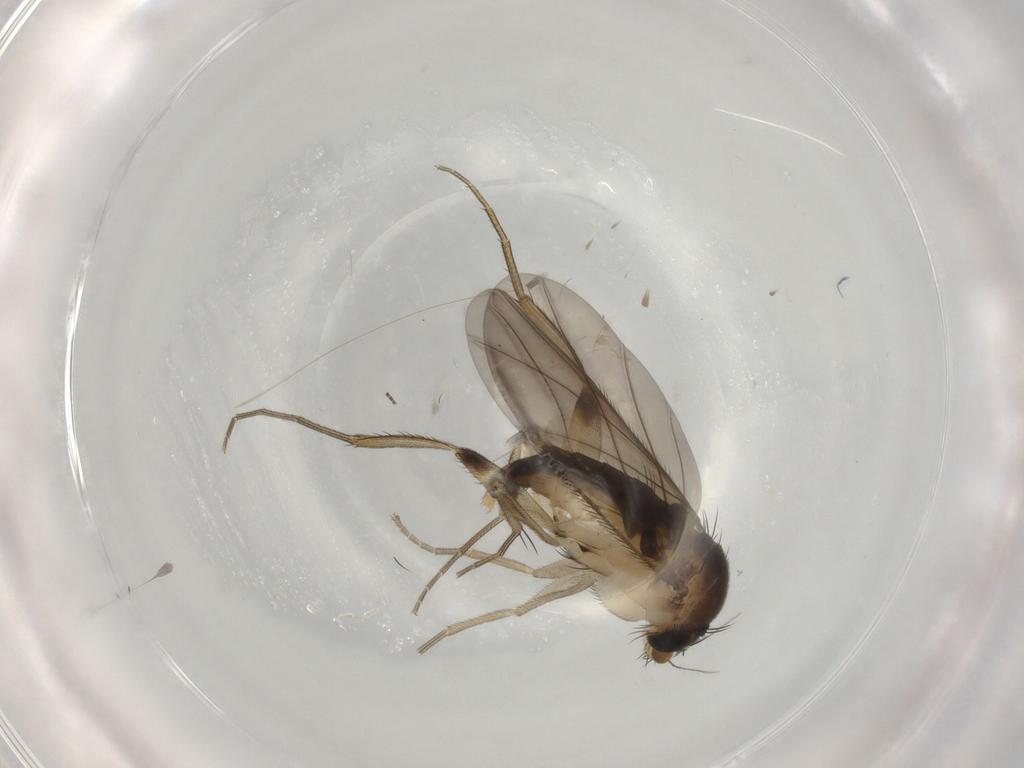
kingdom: Animalia
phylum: Arthropoda
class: Insecta
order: Diptera
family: Phoridae
